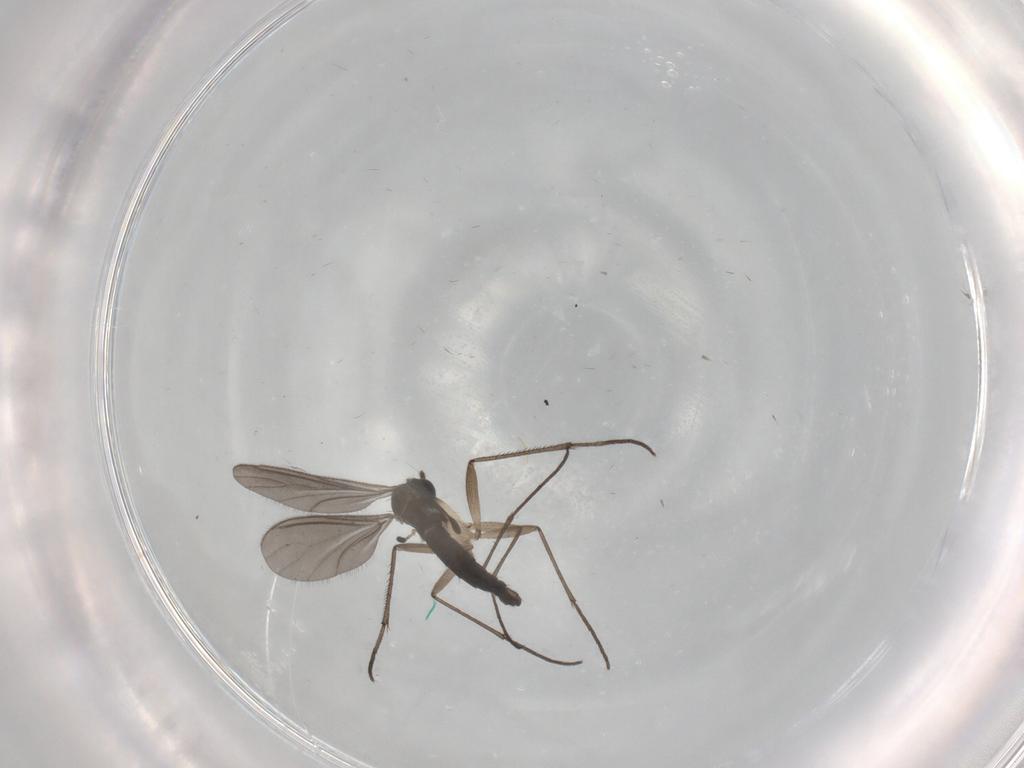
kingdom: Animalia
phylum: Arthropoda
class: Insecta
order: Diptera
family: Sciaridae
